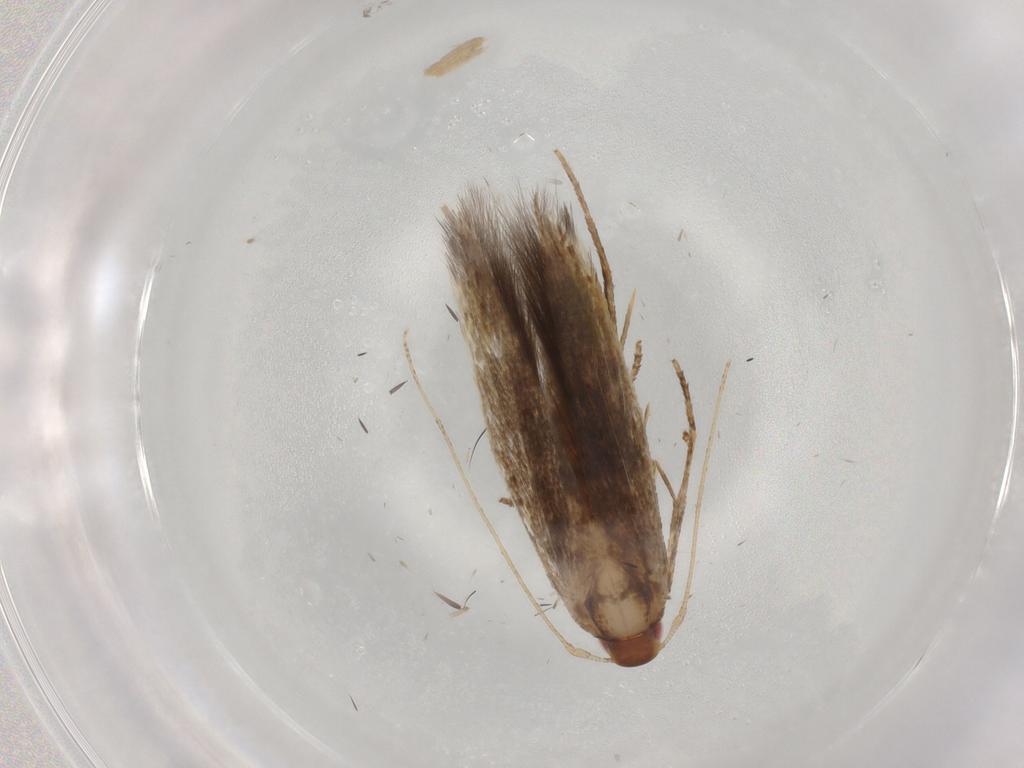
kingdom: Animalia
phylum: Arthropoda
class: Insecta
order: Lepidoptera
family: Cosmopterigidae
